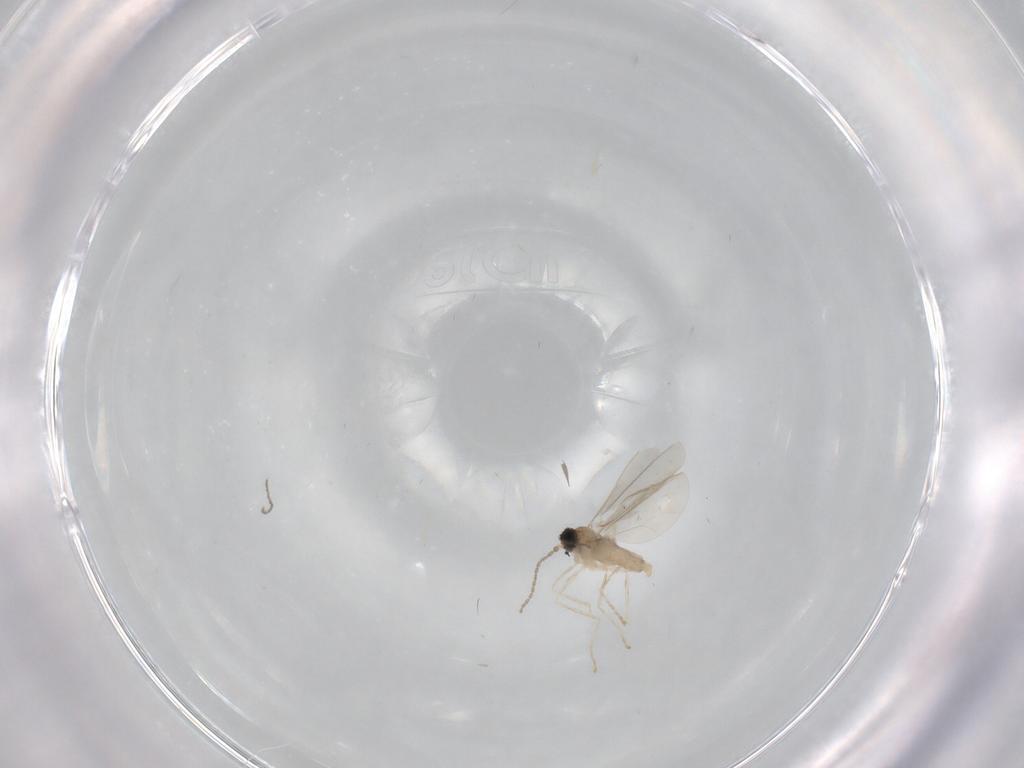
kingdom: Animalia
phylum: Arthropoda
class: Insecta
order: Diptera
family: Cecidomyiidae
